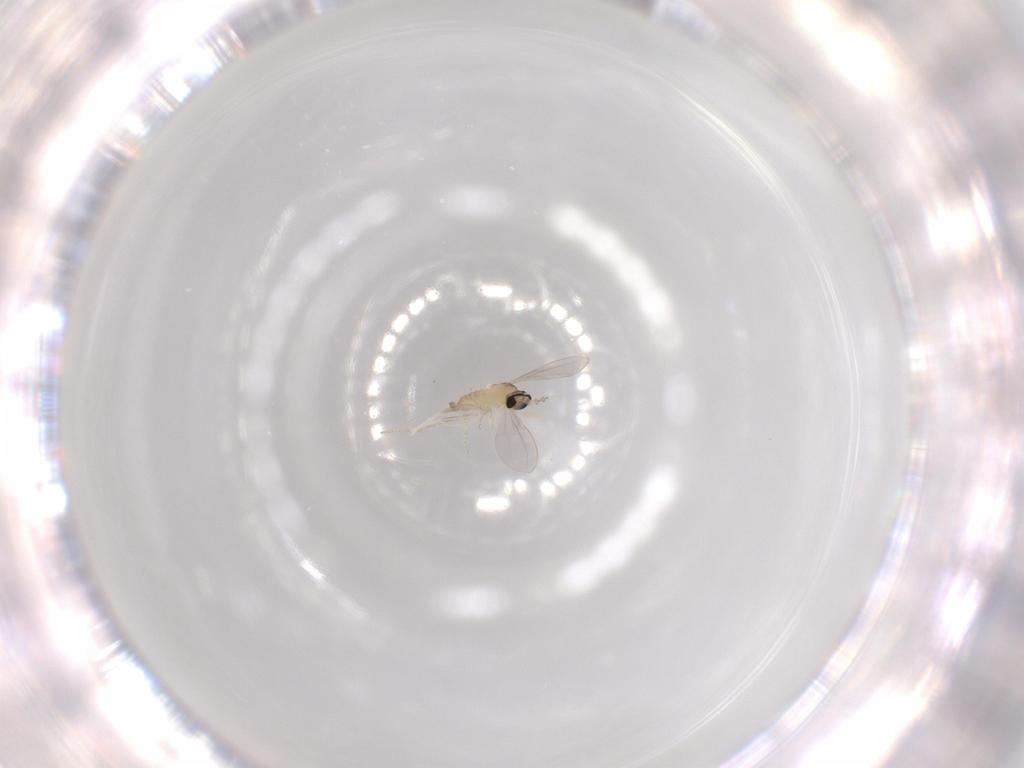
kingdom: Animalia
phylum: Arthropoda
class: Insecta
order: Diptera
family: Cecidomyiidae
